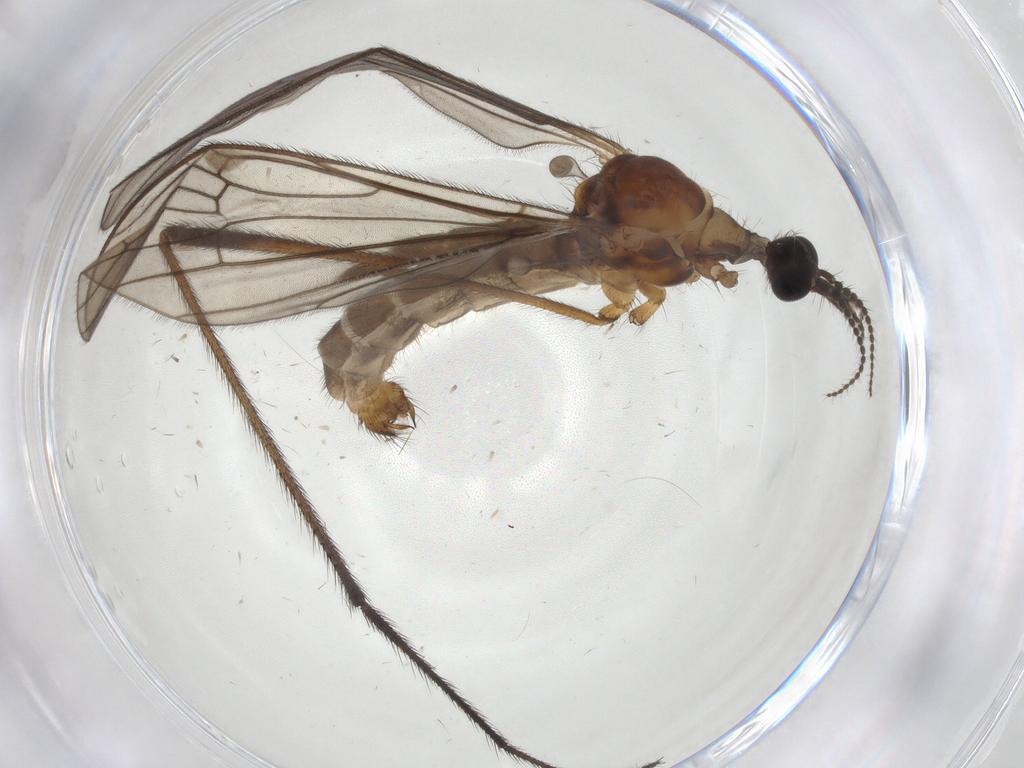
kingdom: Animalia
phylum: Arthropoda
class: Insecta
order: Diptera
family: Limoniidae
